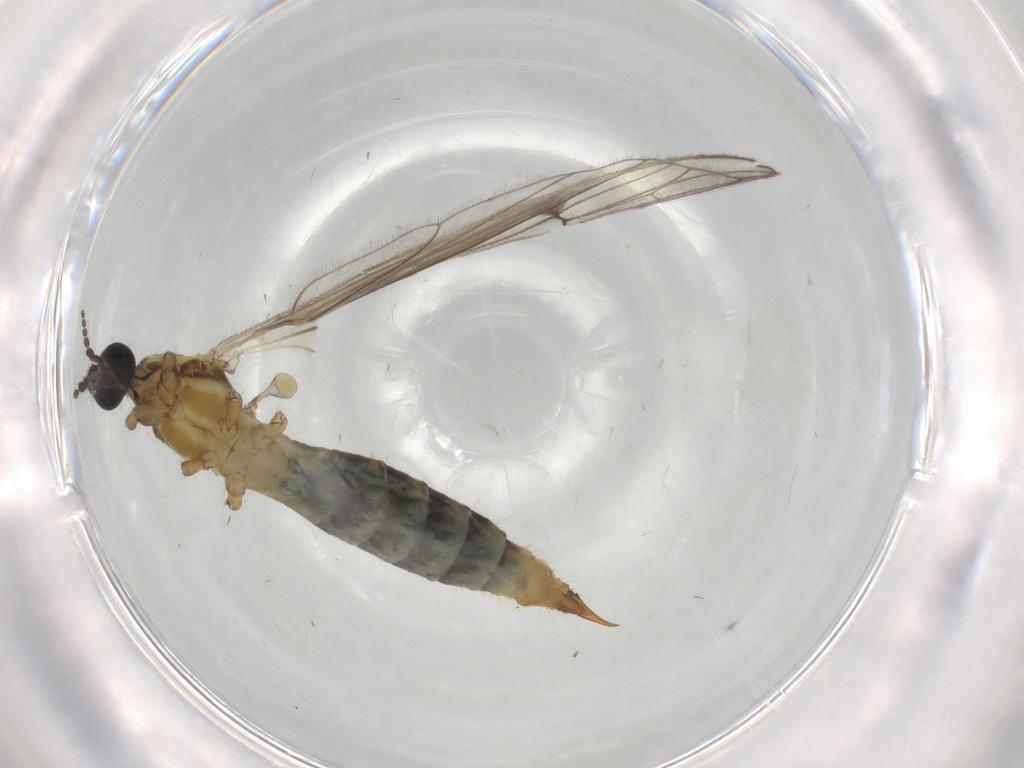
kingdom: Animalia
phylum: Arthropoda
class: Insecta
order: Diptera
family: Limoniidae
